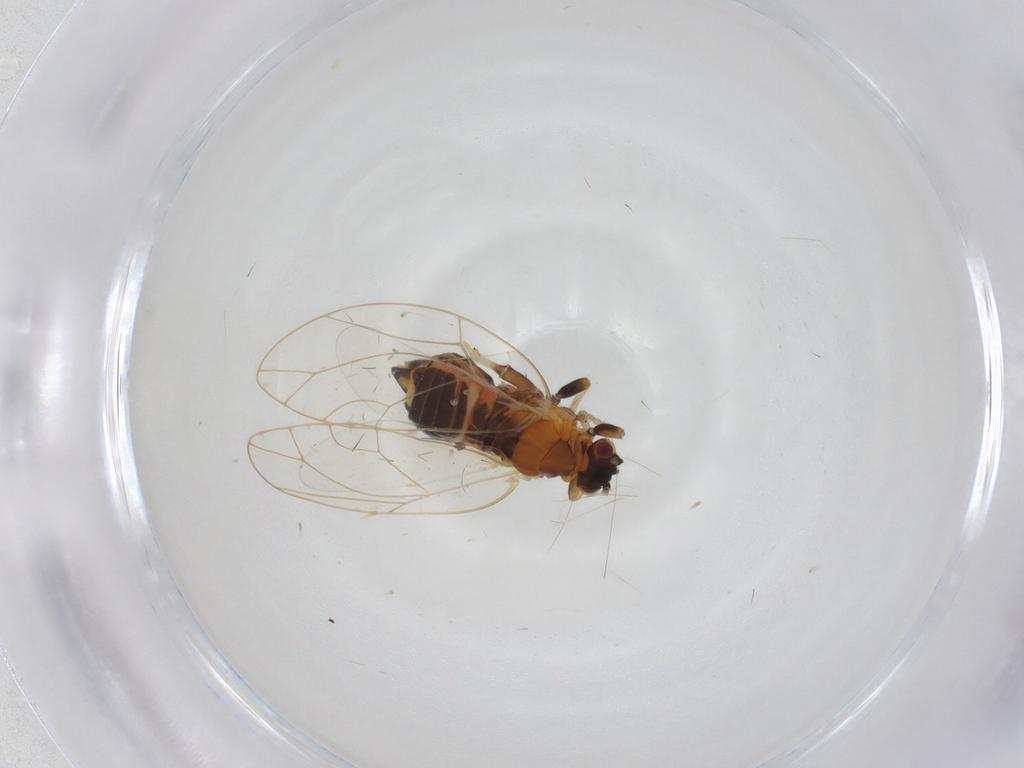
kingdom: Animalia
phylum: Arthropoda
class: Insecta
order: Hemiptera
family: Triozidae
